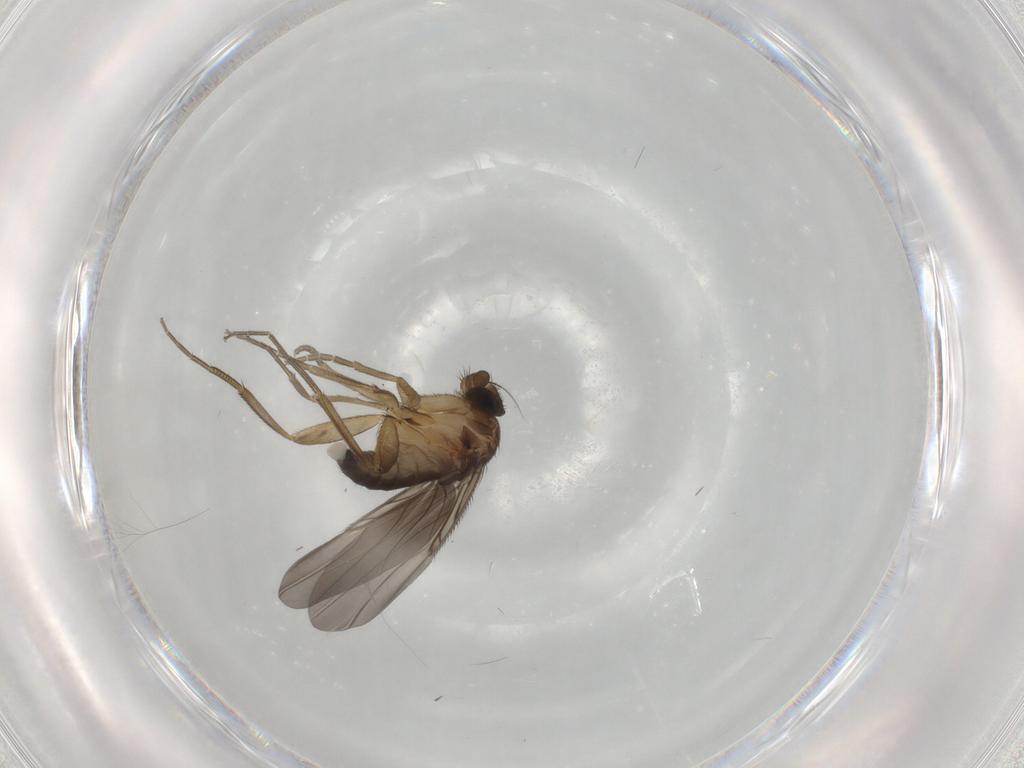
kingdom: Animalia
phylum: Arthropoda
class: Insecta
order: Diptera
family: Phoridae
